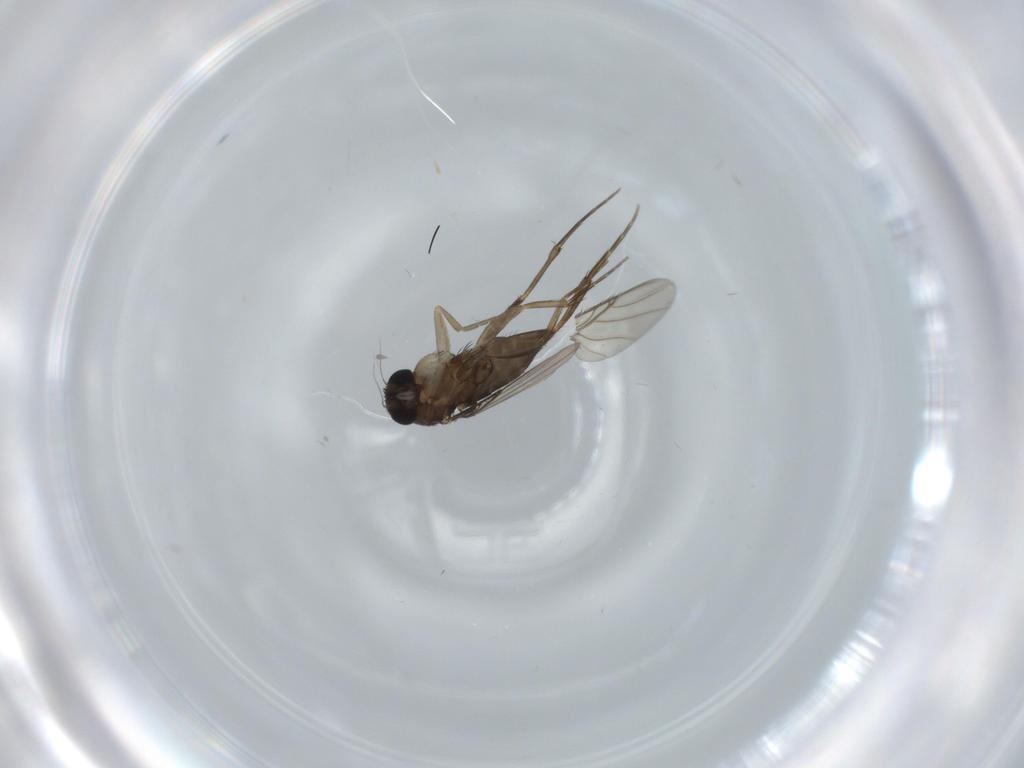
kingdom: Animalia
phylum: Arthropoda
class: Insecta
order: Diptera
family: Phoridae
